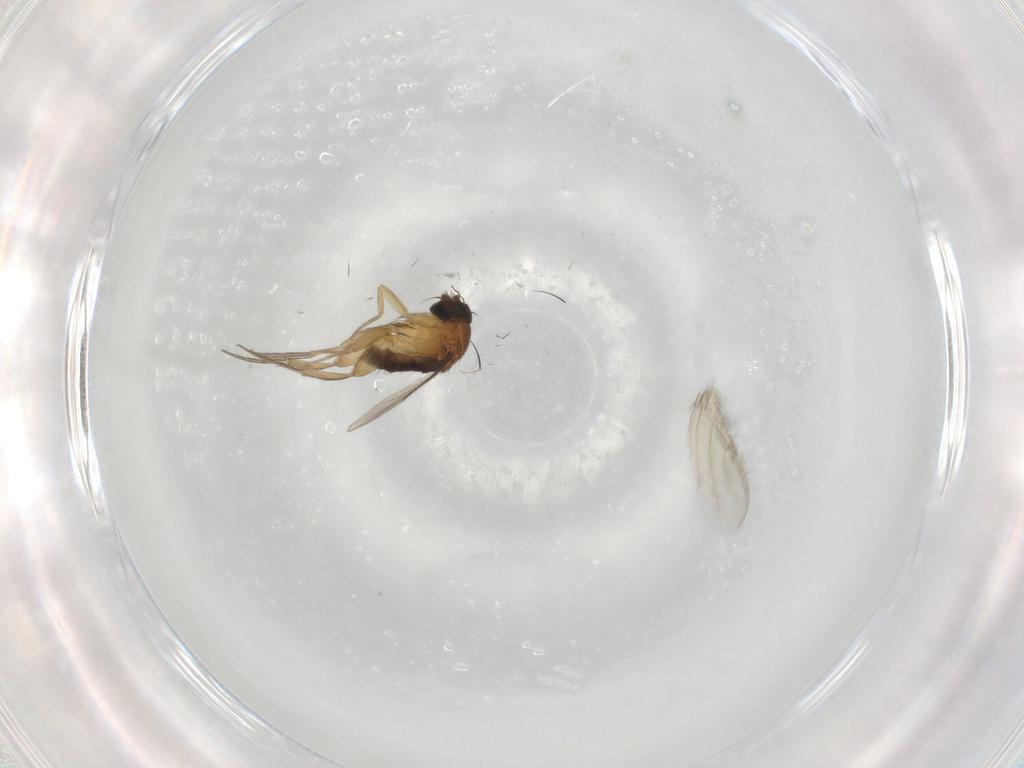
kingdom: Animalia
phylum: Arthropoda
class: Insecta
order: Diptera
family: Phoridae
